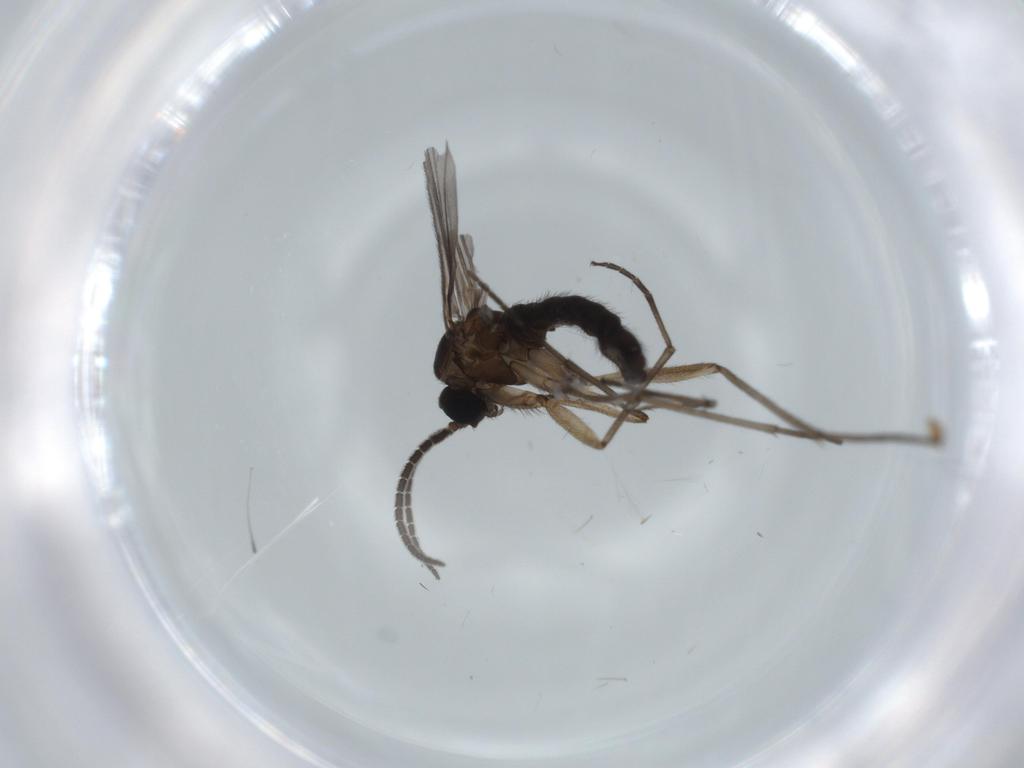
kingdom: Animalia
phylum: Arthropoda
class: Insecta
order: Diptera
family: Sciaridae
